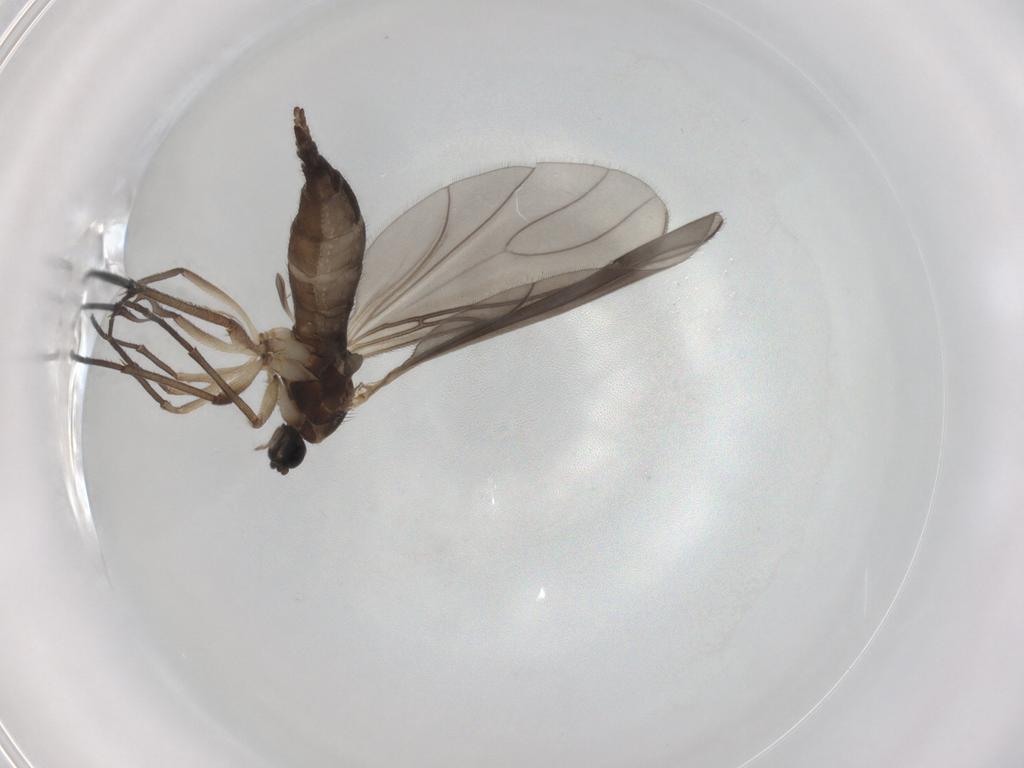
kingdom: Animalia
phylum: Arthropoda
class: Insecta
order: Diptera
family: Sciaridae
